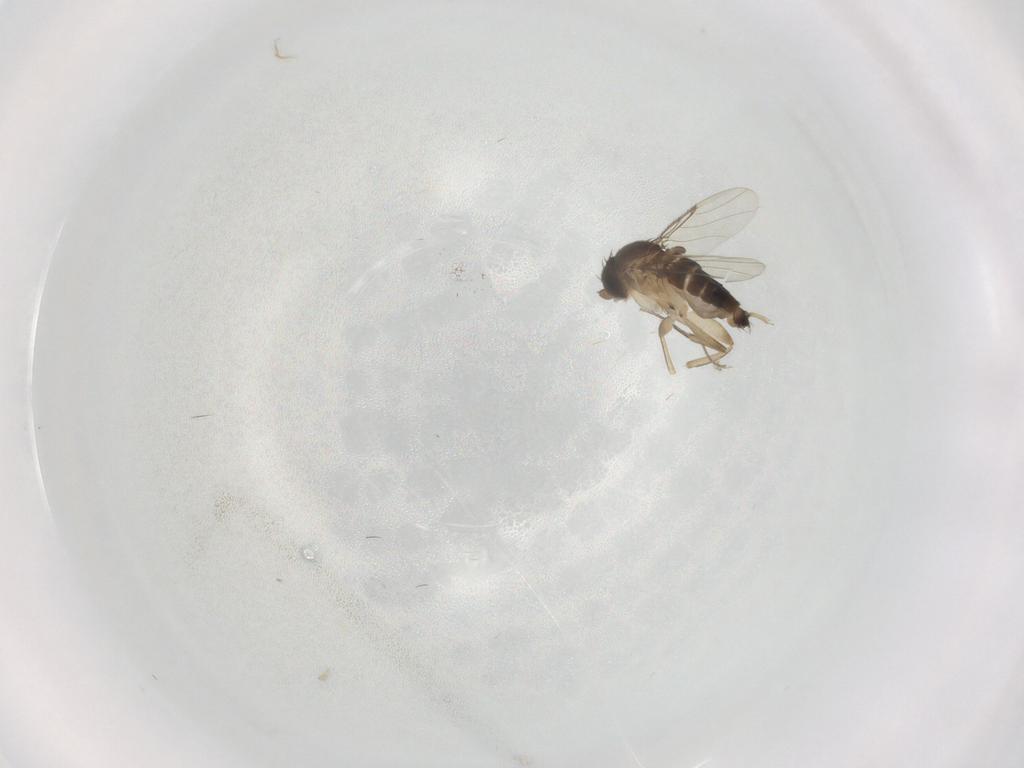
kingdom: Animalia
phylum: Arthropoda
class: Insecta
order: Diptera
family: Phoridae
